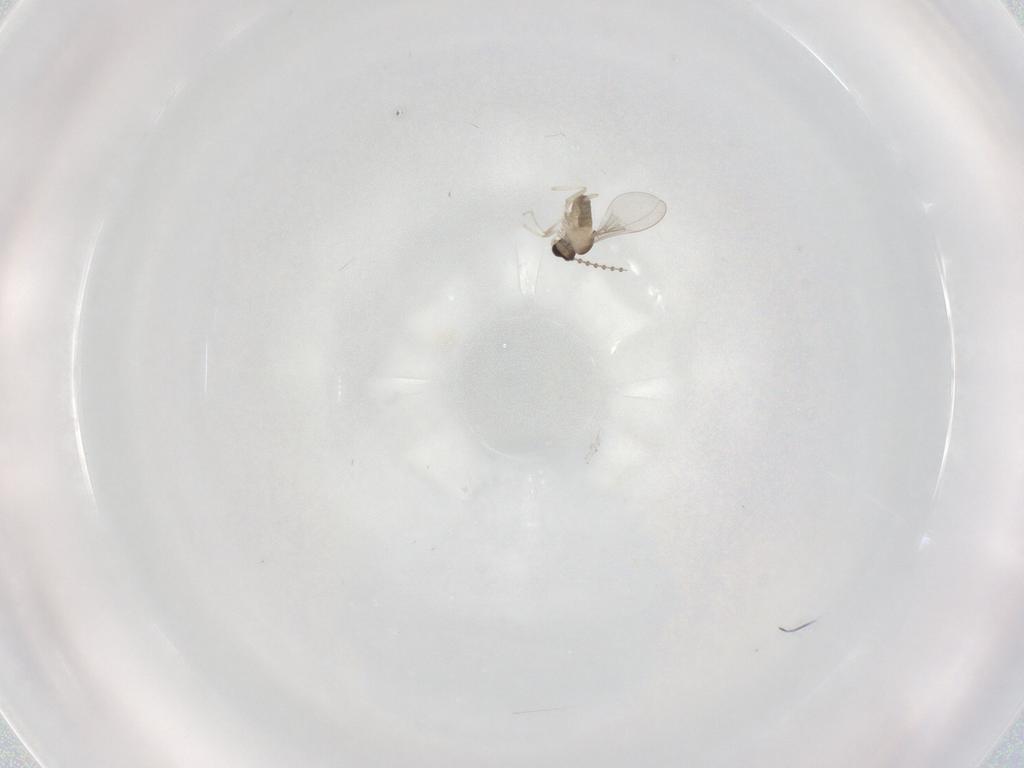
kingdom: Animalia
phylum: Arthropoda
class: Insecta
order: Diptera
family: Cecidomyiidae
